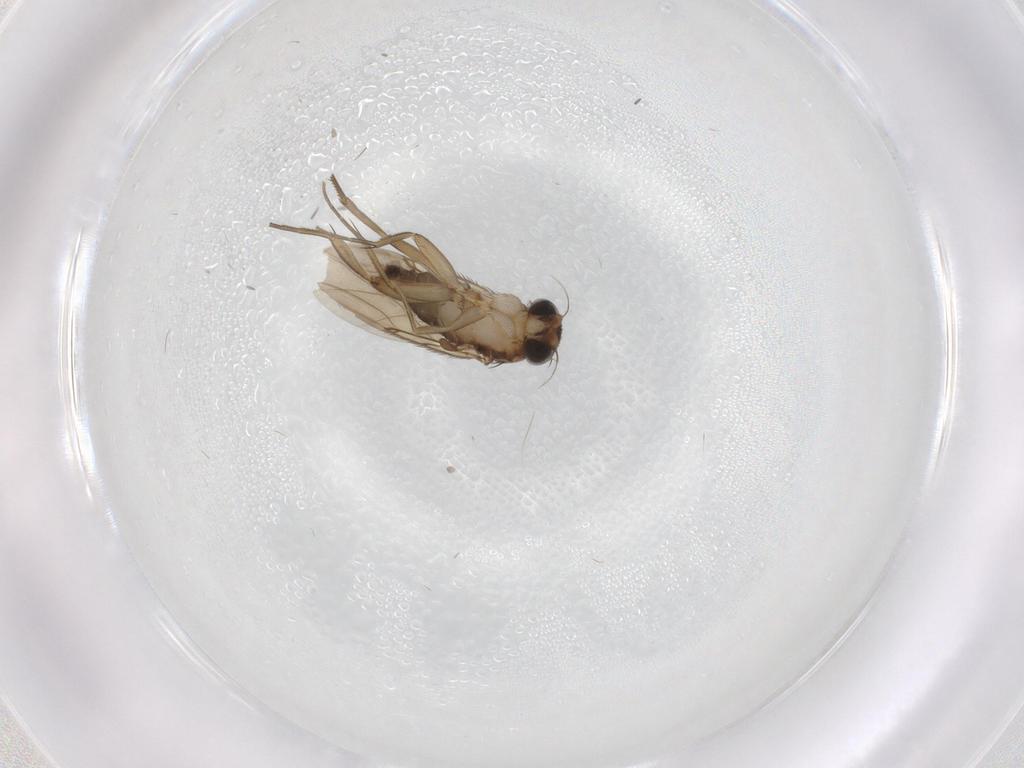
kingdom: Animalia
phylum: Arthropoda
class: Insecta
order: Diptera
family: Phoridae
